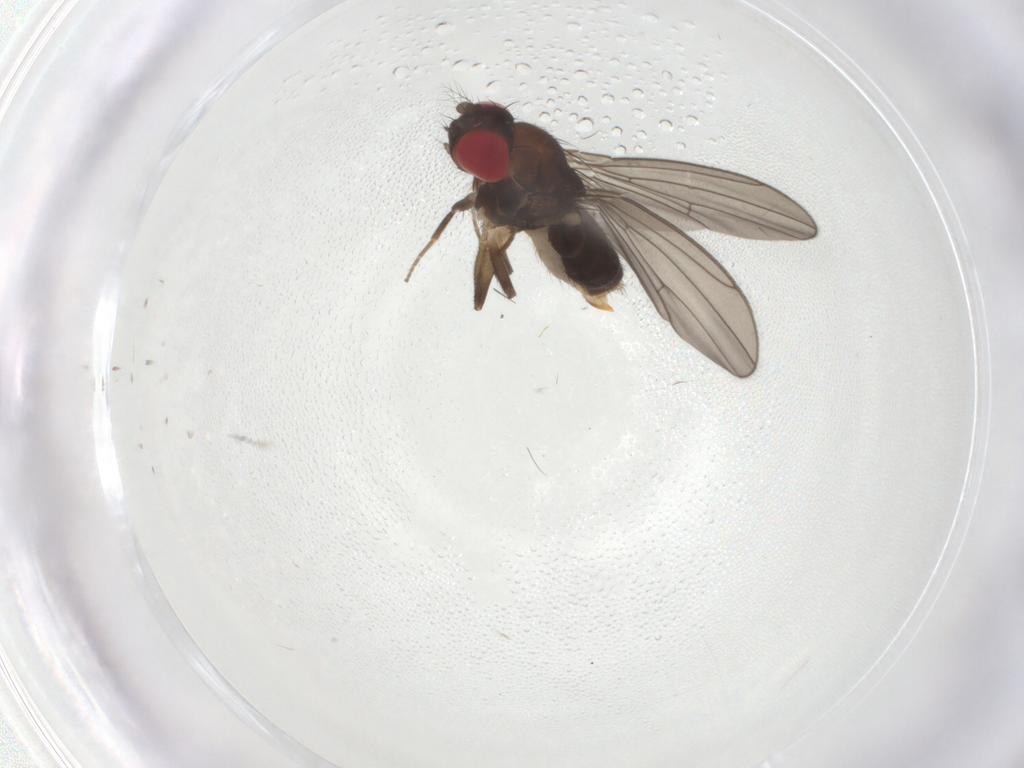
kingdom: Animalia
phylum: Arthropoda
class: Insecta
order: Diptera
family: Drosophilidae
